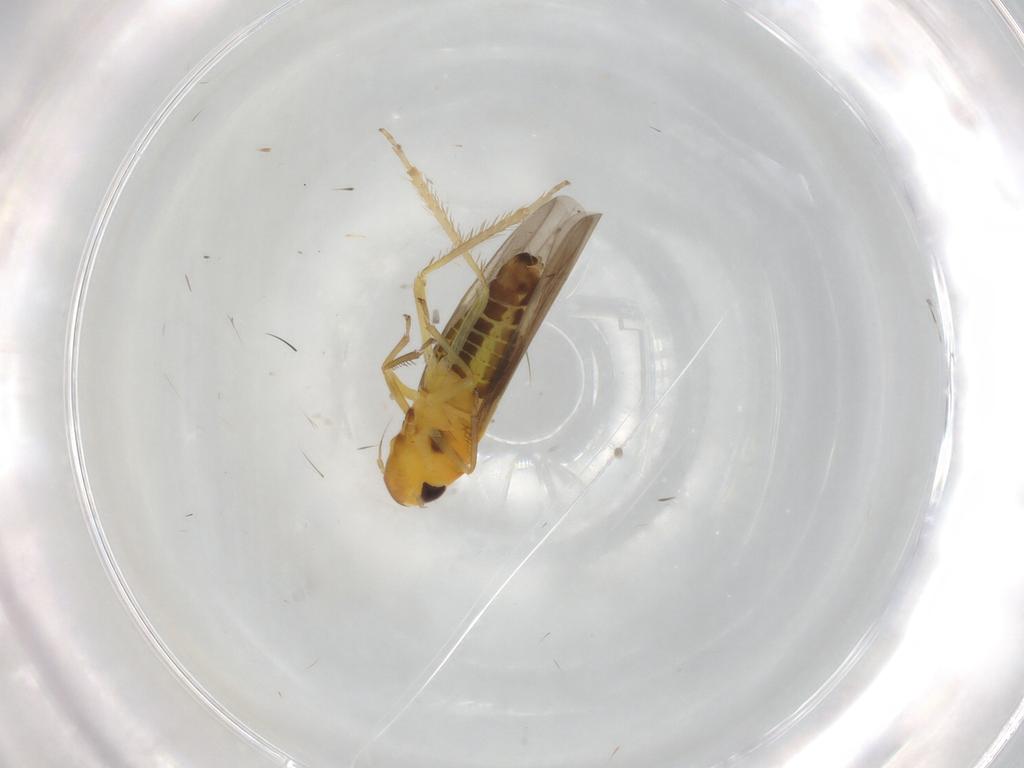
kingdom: Animalia
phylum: Arthropoda
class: Insecta
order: Hemiptera
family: Cicadellidae
